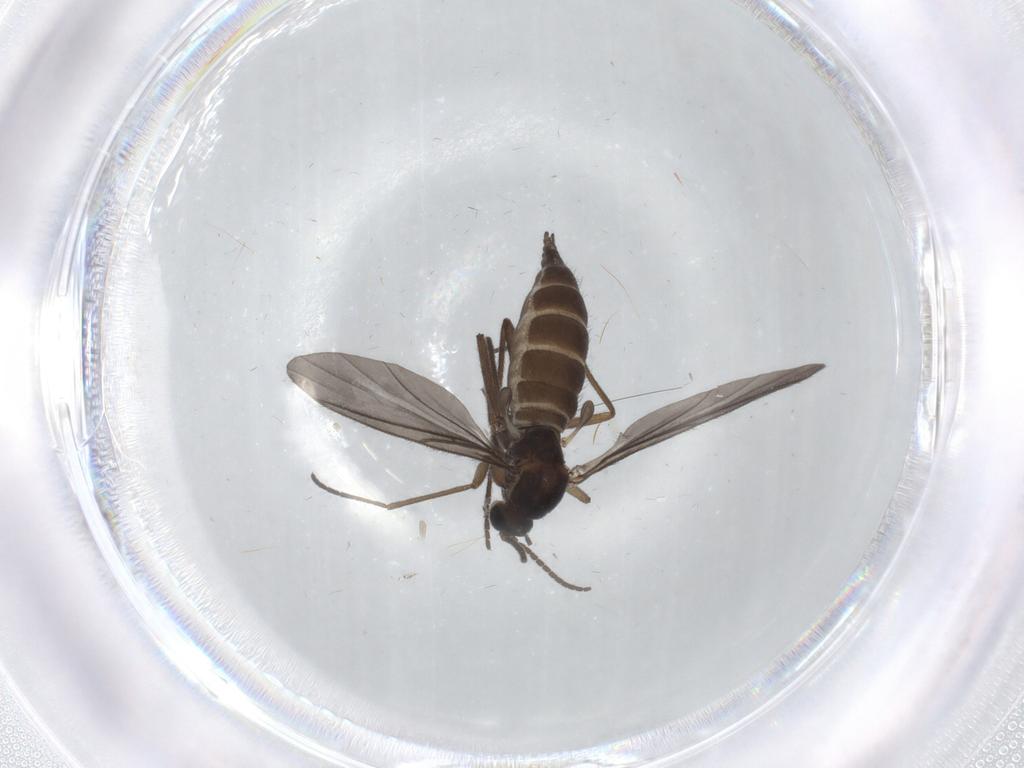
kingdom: Animalia
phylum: Arthropoda
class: Insecta
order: Diptera
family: Sciaridae
